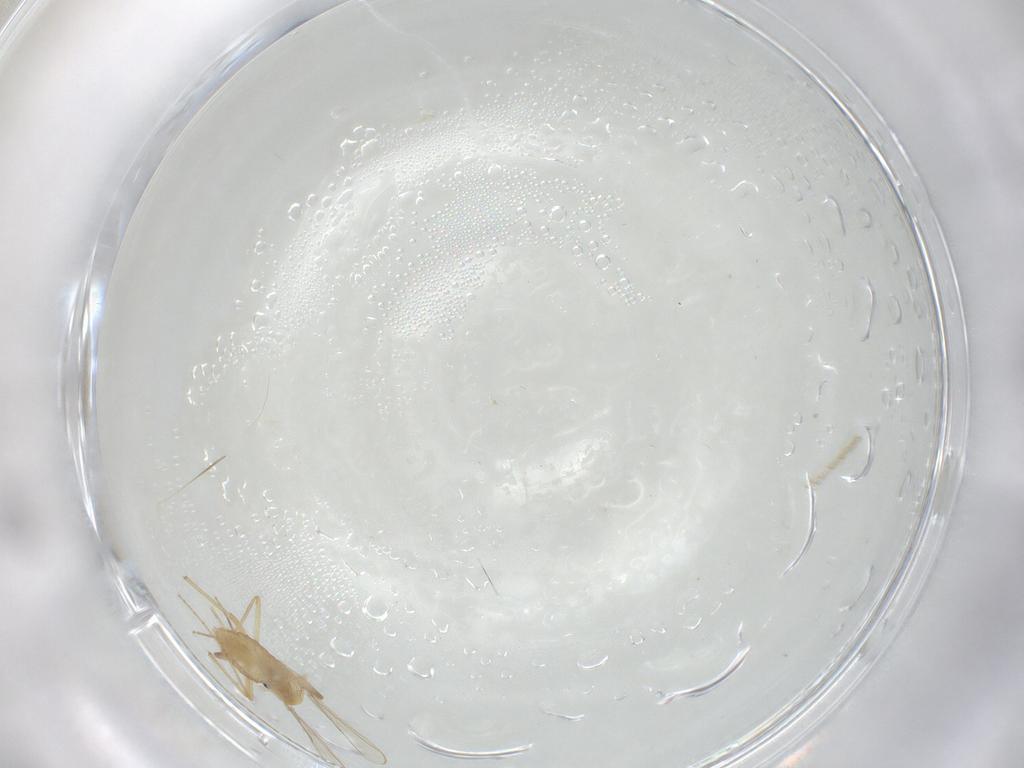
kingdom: Animalia
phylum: Arthropoda
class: Insecta
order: Diptera
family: Chironomidae
